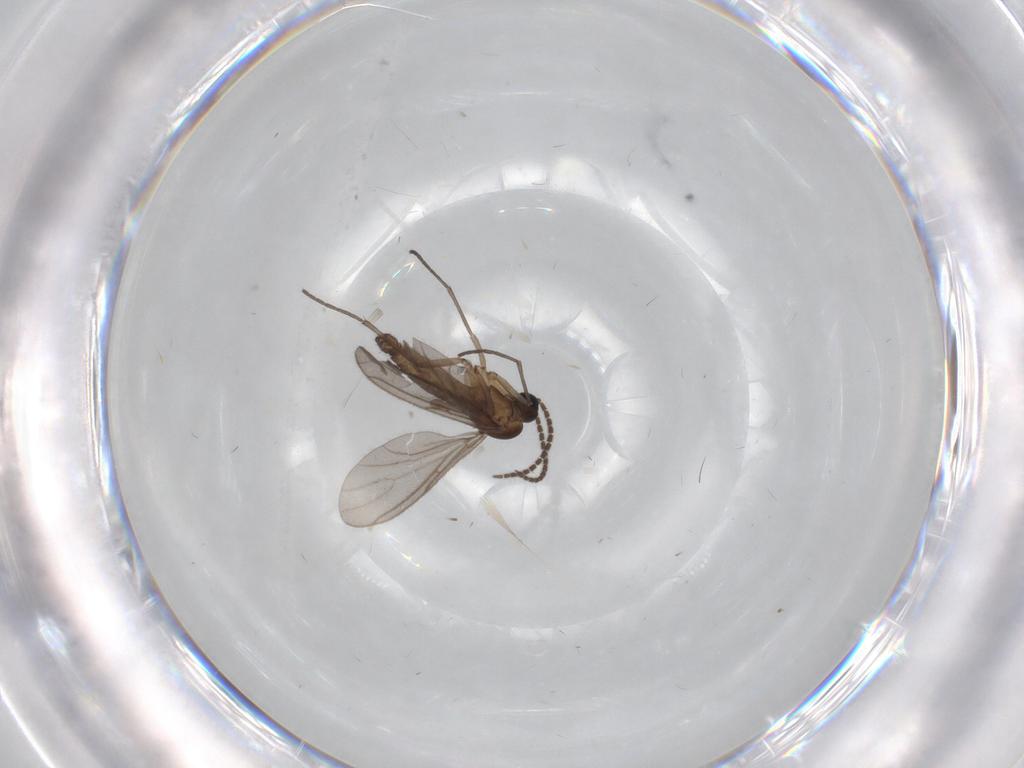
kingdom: Animalia
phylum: Arthropoda
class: Insecta
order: Diptera
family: Sciaridae
